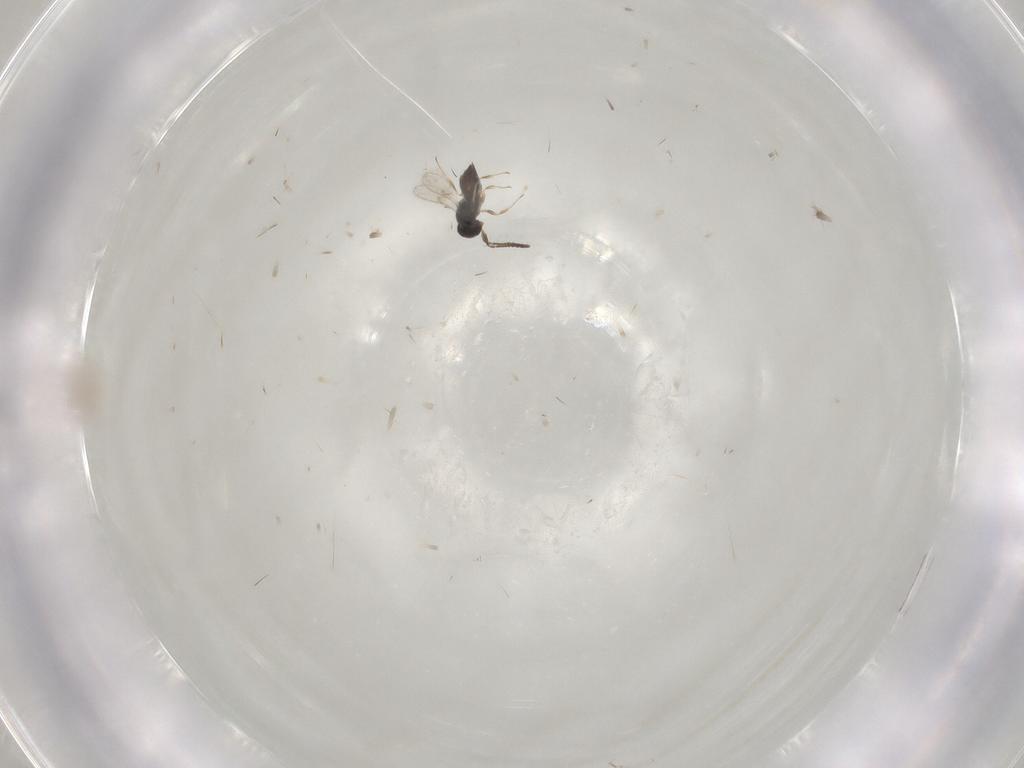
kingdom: Animalia
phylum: Arthropoda
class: Insecta
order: Hymenoptera
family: Scelionidae
